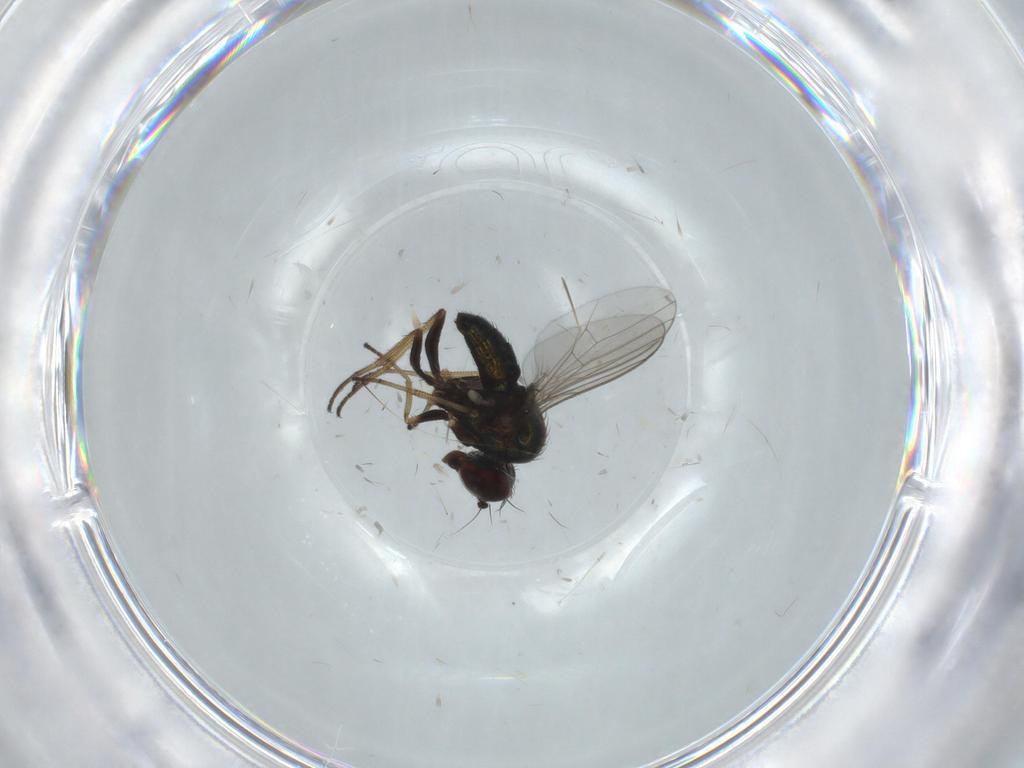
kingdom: Animalia
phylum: Arthropoda
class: Insecta
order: Diptera
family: Dolichopodidae
